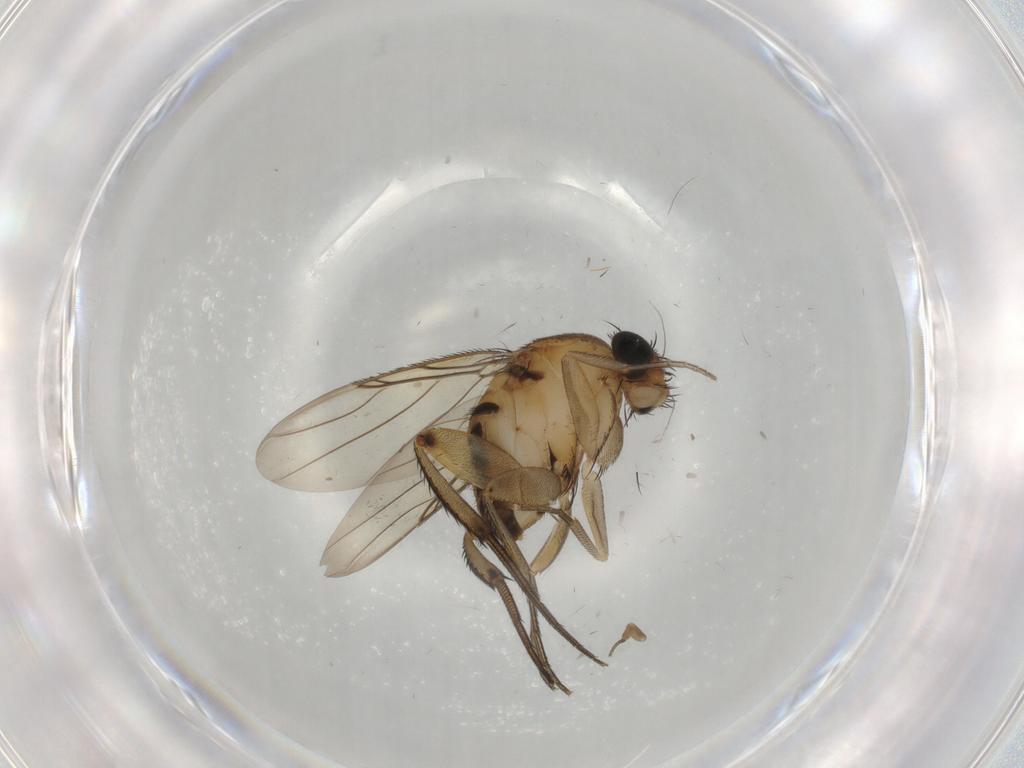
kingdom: Animalia
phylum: Arthropoda
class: Insecta
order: Diptera
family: Phoridae
